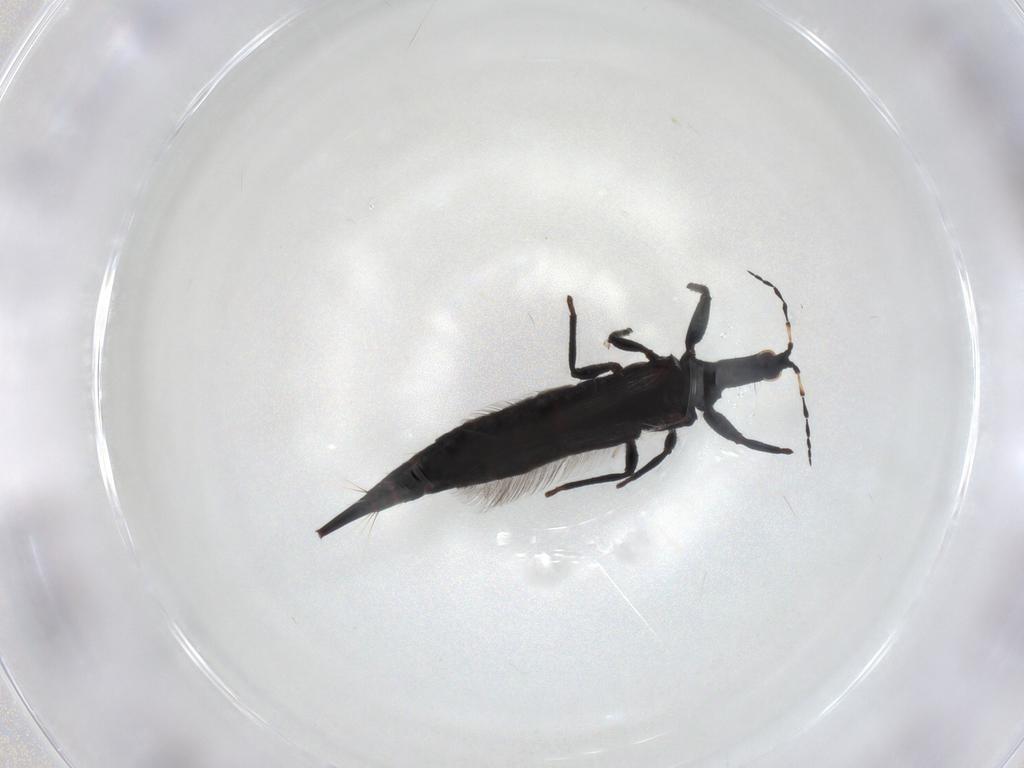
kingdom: Animalia
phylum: Arthropoda
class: Insecta
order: Thysanoptera
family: Phlaeothripidae
